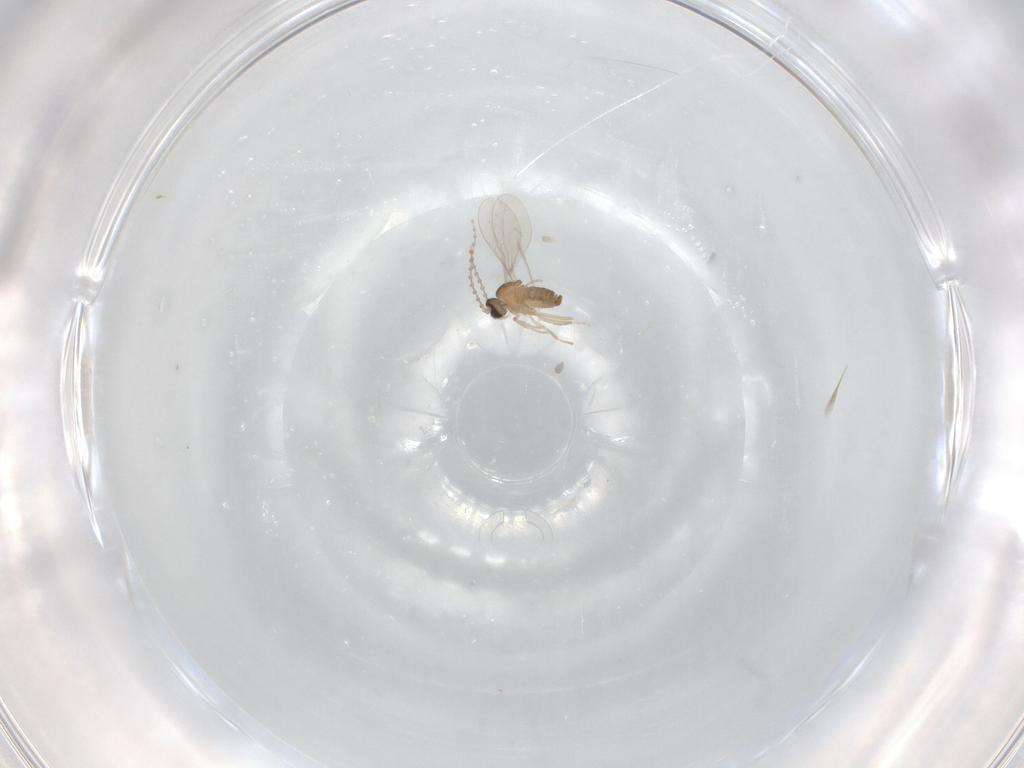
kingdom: Animalia
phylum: Arthropoda
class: Insecta
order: Diptera
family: Cecidomyiidae
